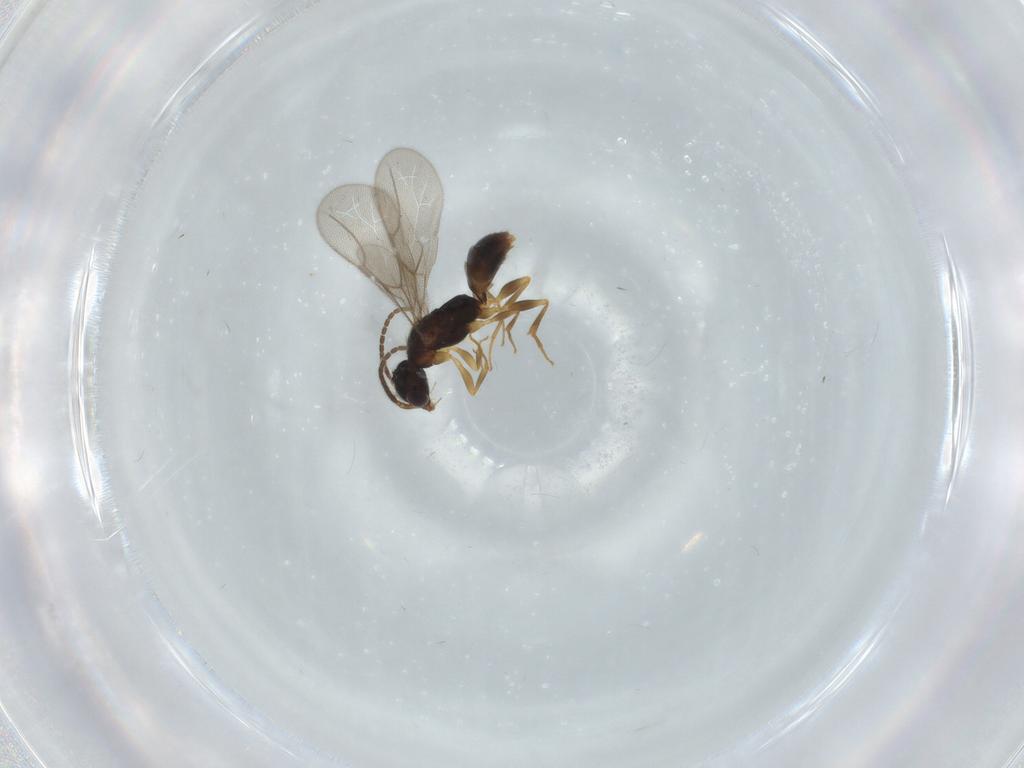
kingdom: Animalia
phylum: Arthropoda
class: Insecta
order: Hymenoptera
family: Bethylidae
